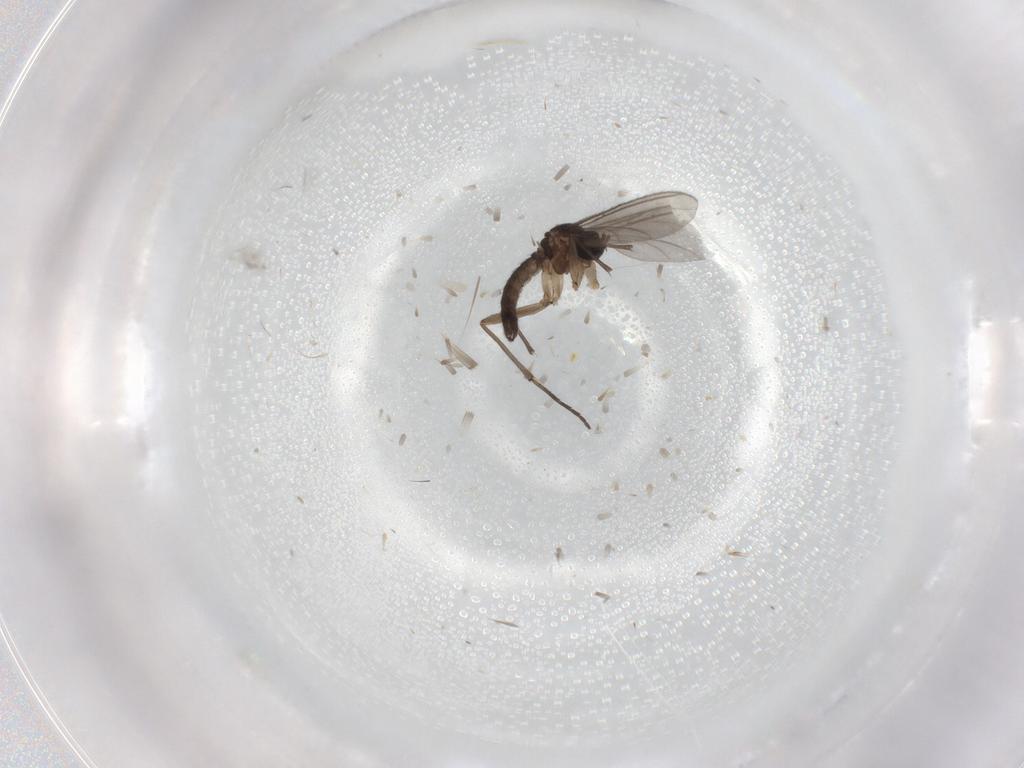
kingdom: Animalia
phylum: Arthropoda
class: Insecta
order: Diptera
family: Sciaridae
